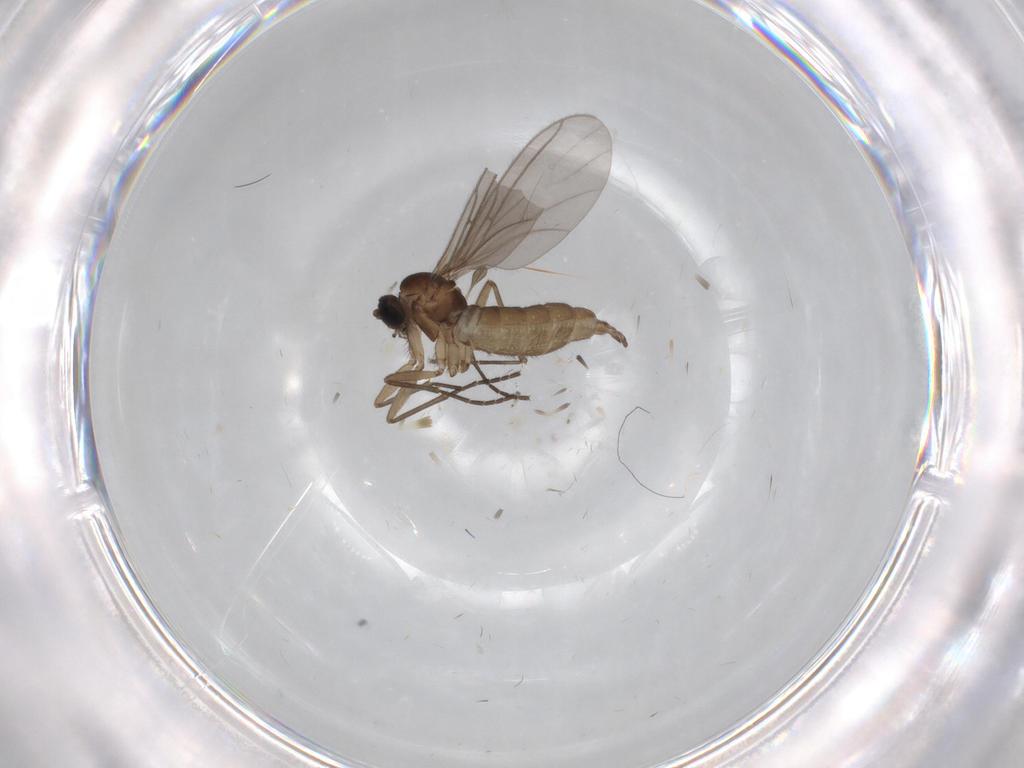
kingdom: Animalia
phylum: Arthropoda
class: Insecta
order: Diptera
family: Sciaridae
